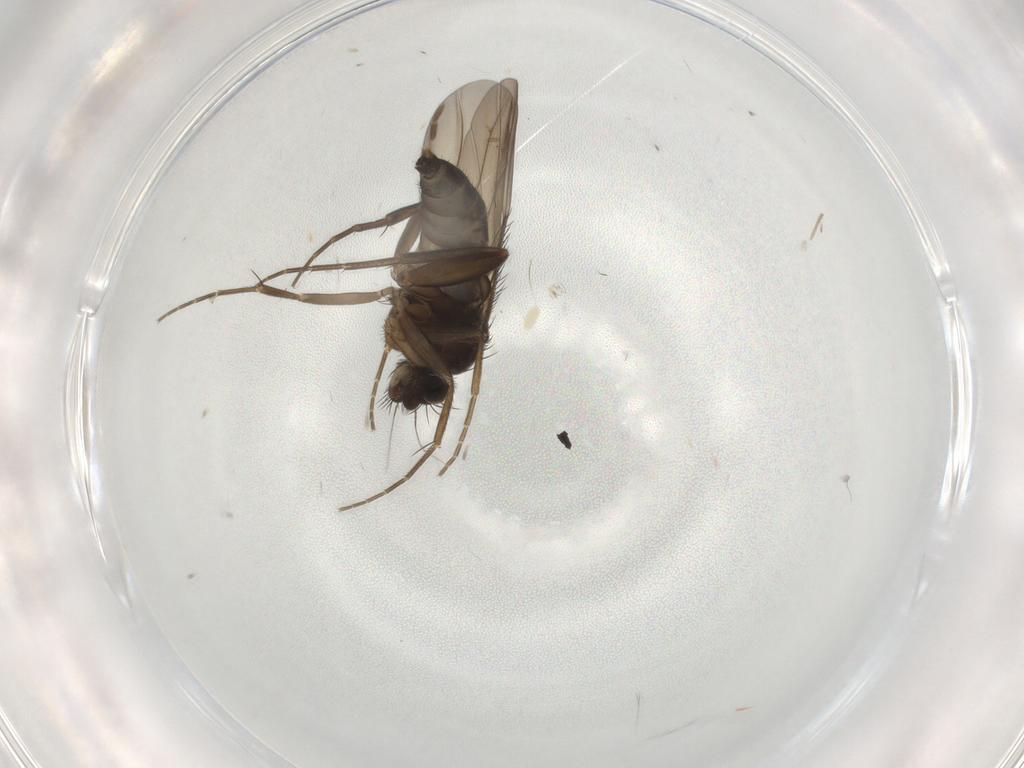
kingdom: Animalia
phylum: Arthropoda
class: Insecta
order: Diptera
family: Phoridae
